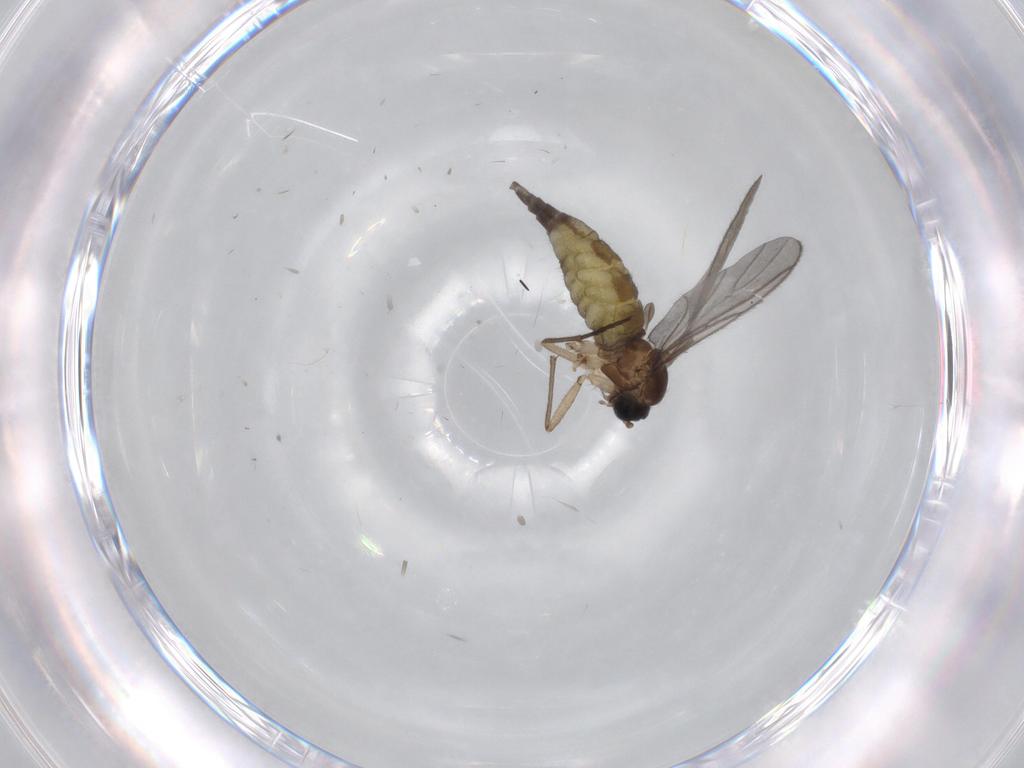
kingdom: Animalia
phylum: Arthropoda
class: Insecta
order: Diptera
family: Sciaridae
